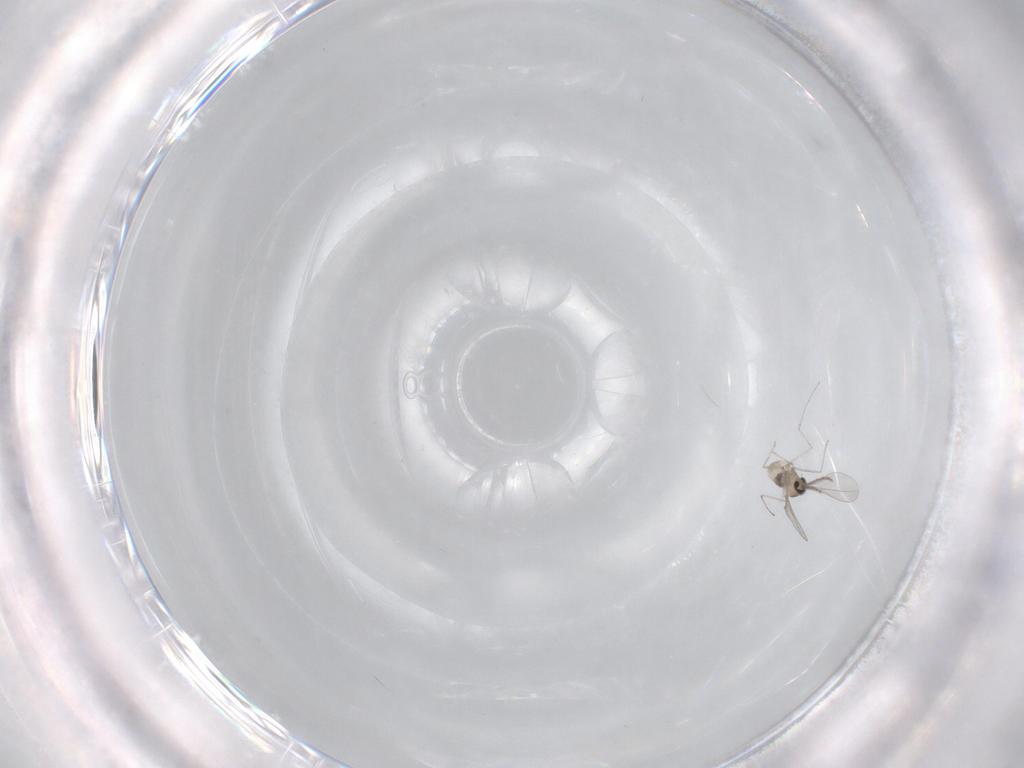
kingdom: Animalia
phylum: Arthropoda
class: Insecta
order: Diptera
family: Cecidomyiidae
